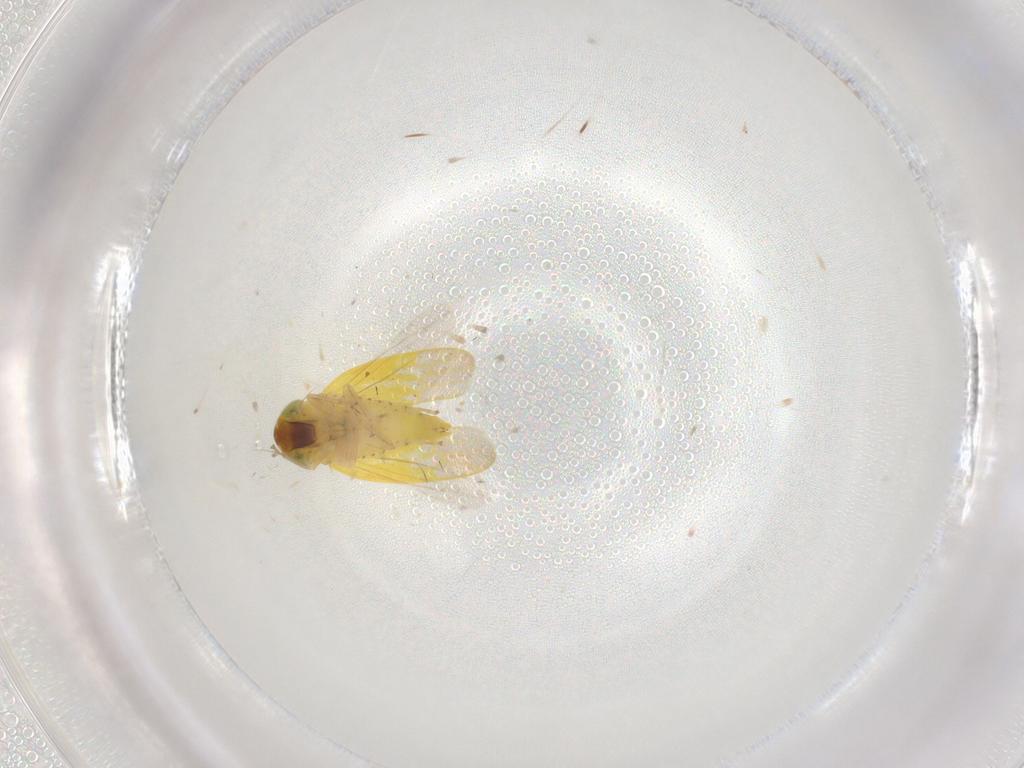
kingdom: Animalia
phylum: Arthropoda
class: Insecta
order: Hemiptera
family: Cicadellidae
